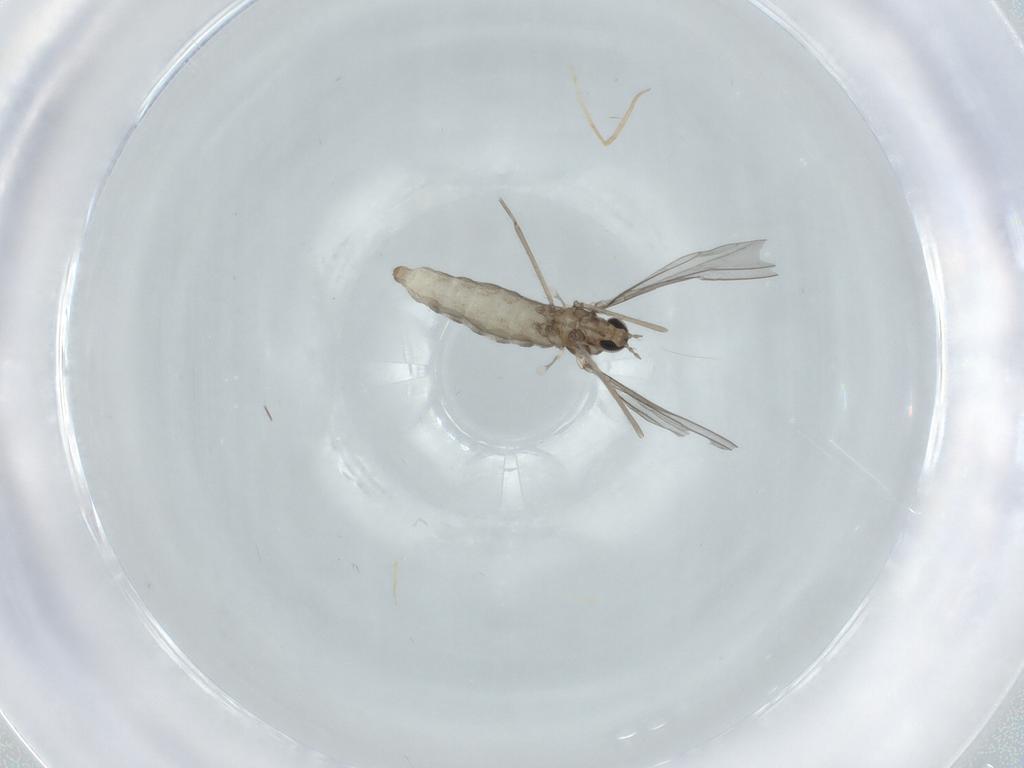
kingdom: Animalia
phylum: Arthropoda
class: Insecta
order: Diptera
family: Cecidomyiidae
